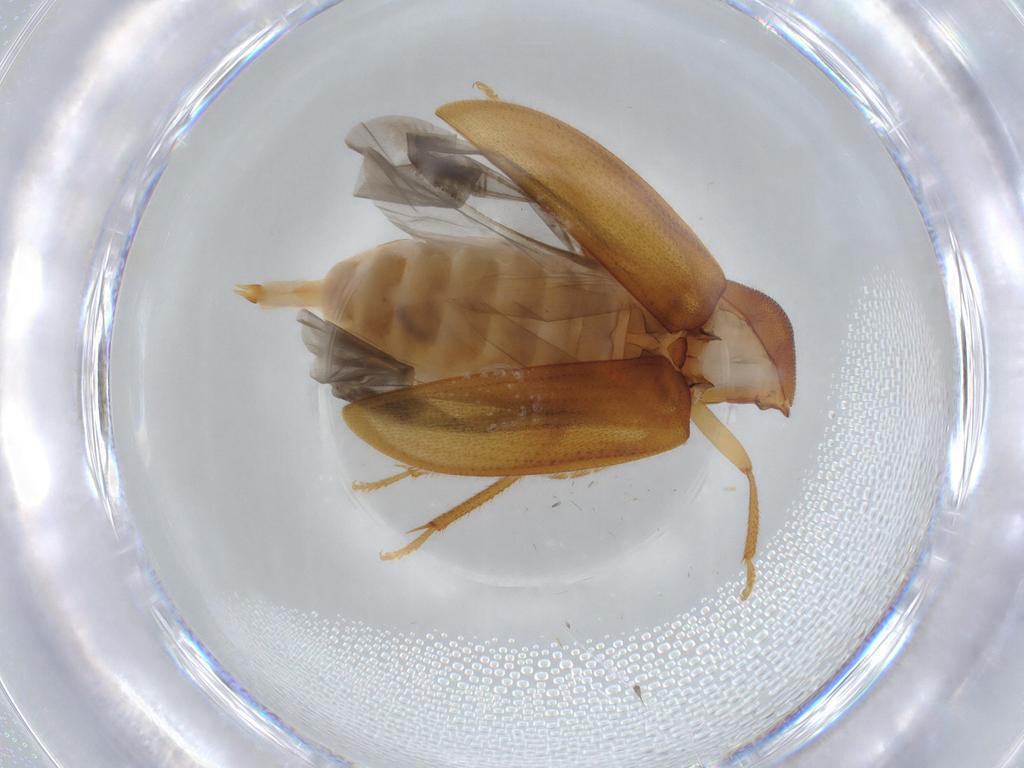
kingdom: Animalia
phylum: Arthropoda
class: Insecta
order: Coleoptera
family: Ptilodactylidae
